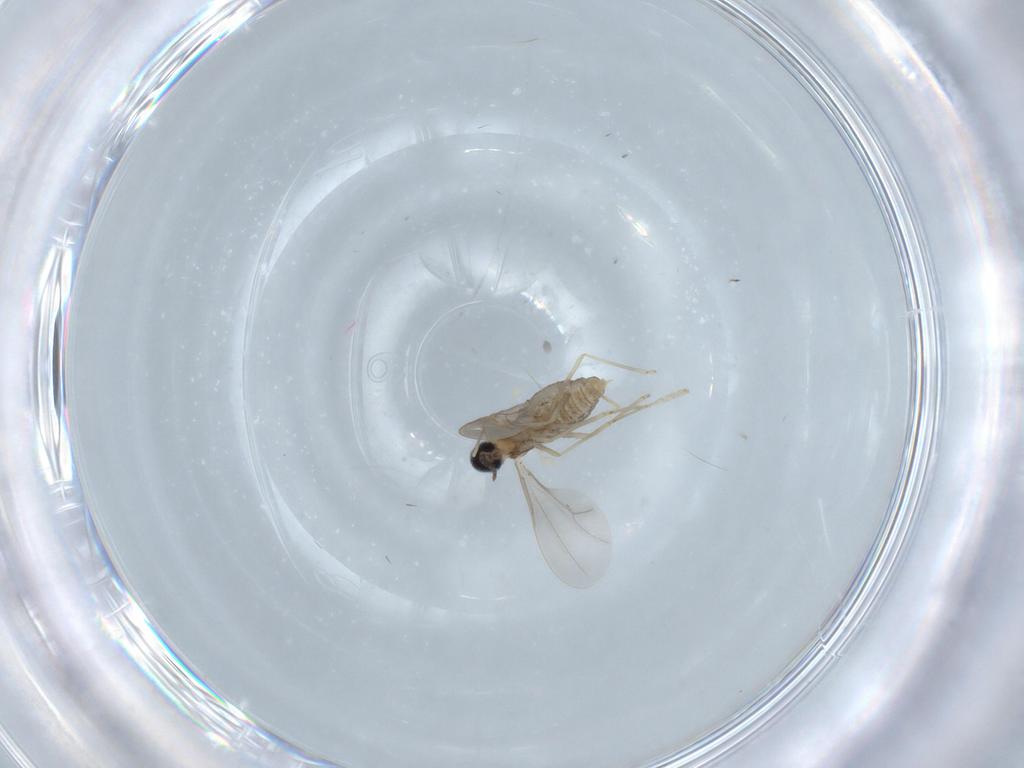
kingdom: Animalia
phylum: Arthropoda
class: Insecta
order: Diptera
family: Cecidomyiidae
